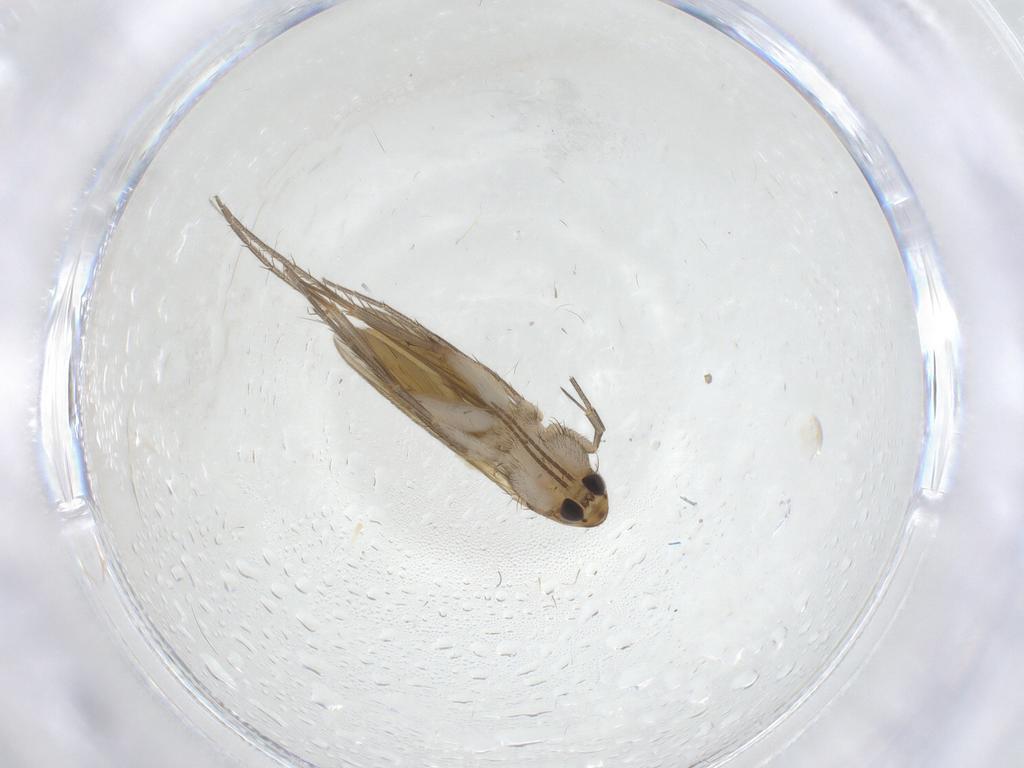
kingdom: Animalia
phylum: Arthropoda
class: Insecta
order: Diptera
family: Mycetophilidae
